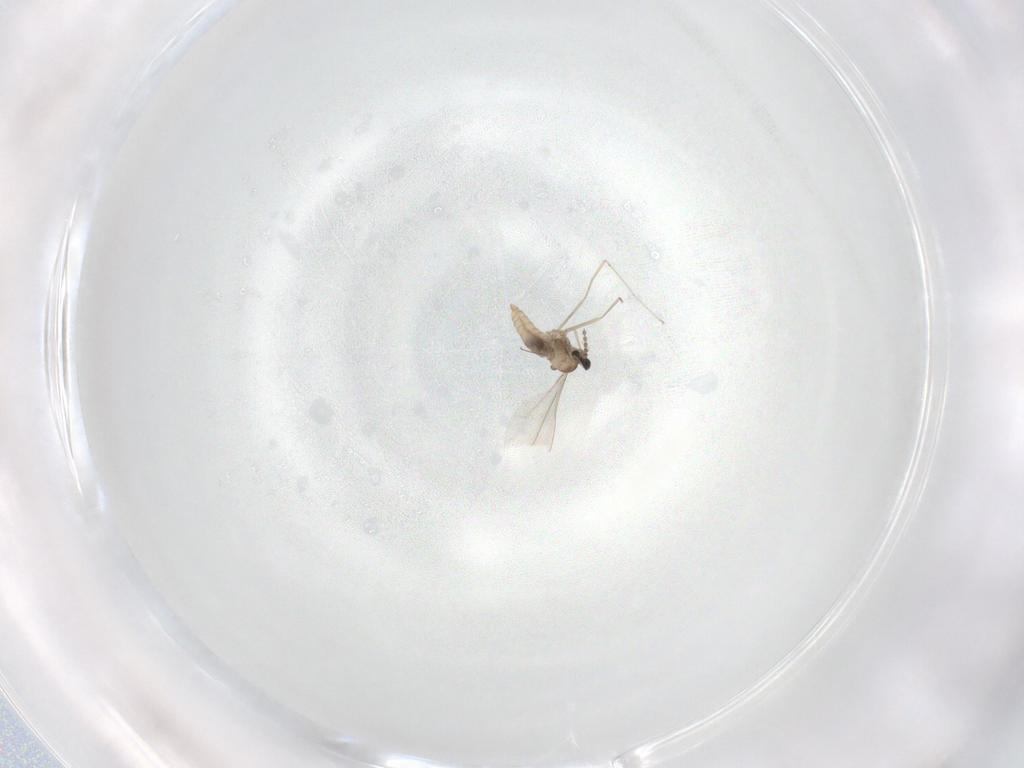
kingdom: Animalia
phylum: Arthropoda
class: Insecta
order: Diptera
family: Cecidomyiidae
